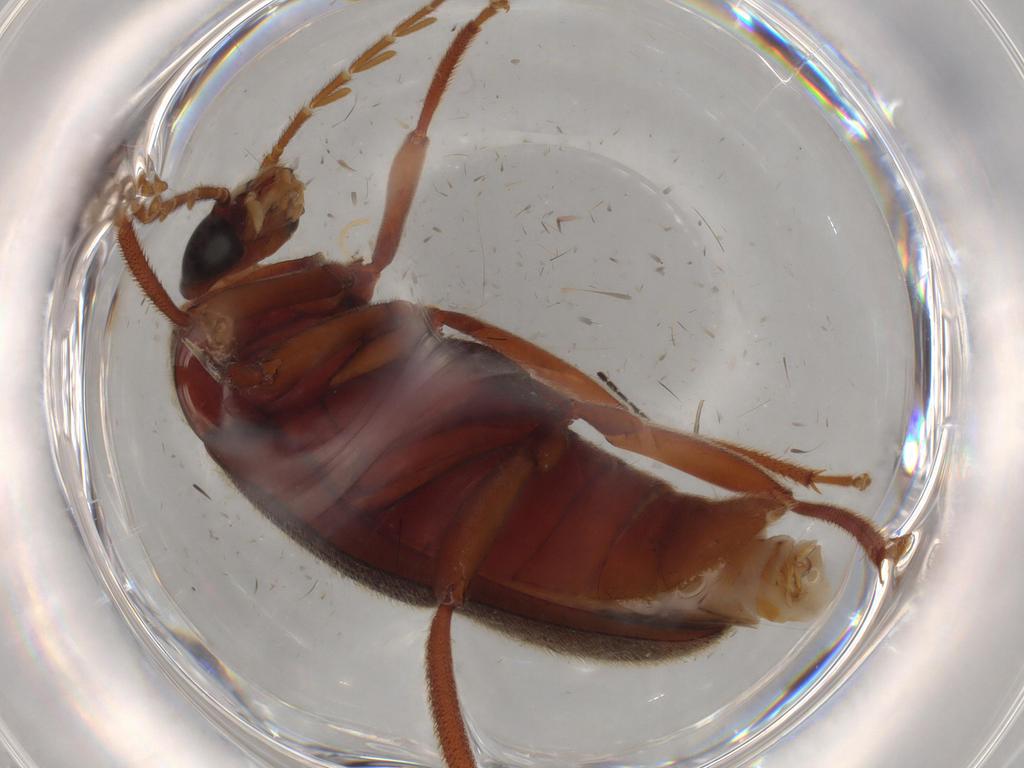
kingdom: Animalia
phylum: Arthropoda
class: Insecta
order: Coleoptera
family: Ptilodactylidae
